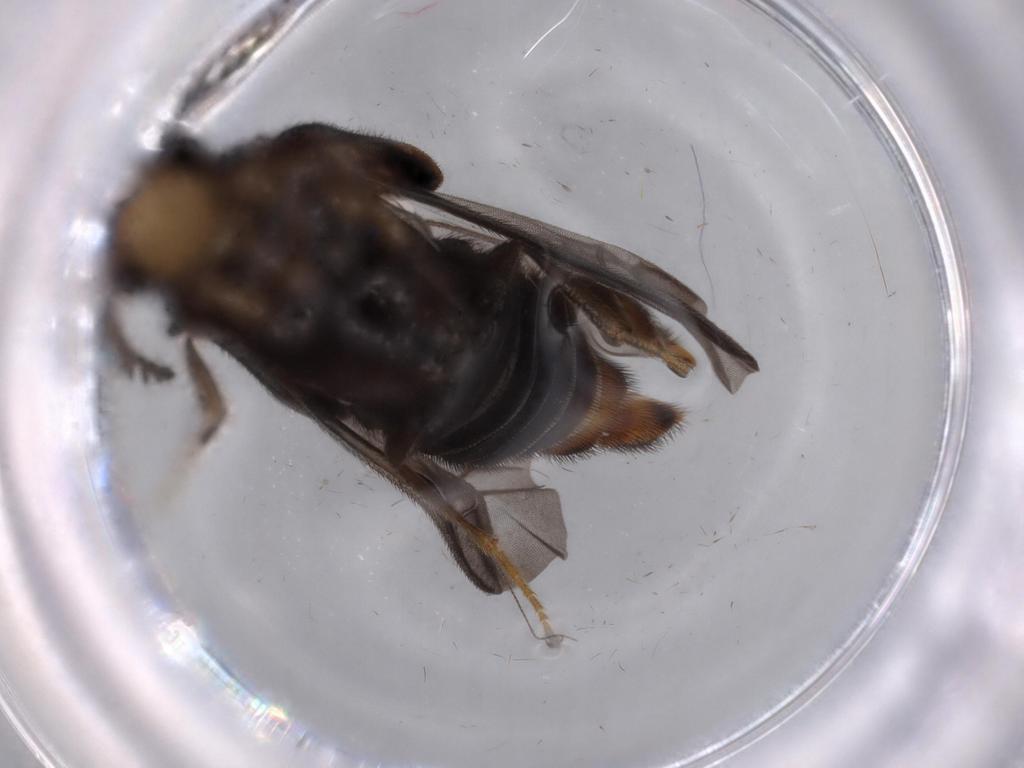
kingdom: Animalia
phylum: Arthropoda
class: Insecta
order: Coleoptera
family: Phengodidae
